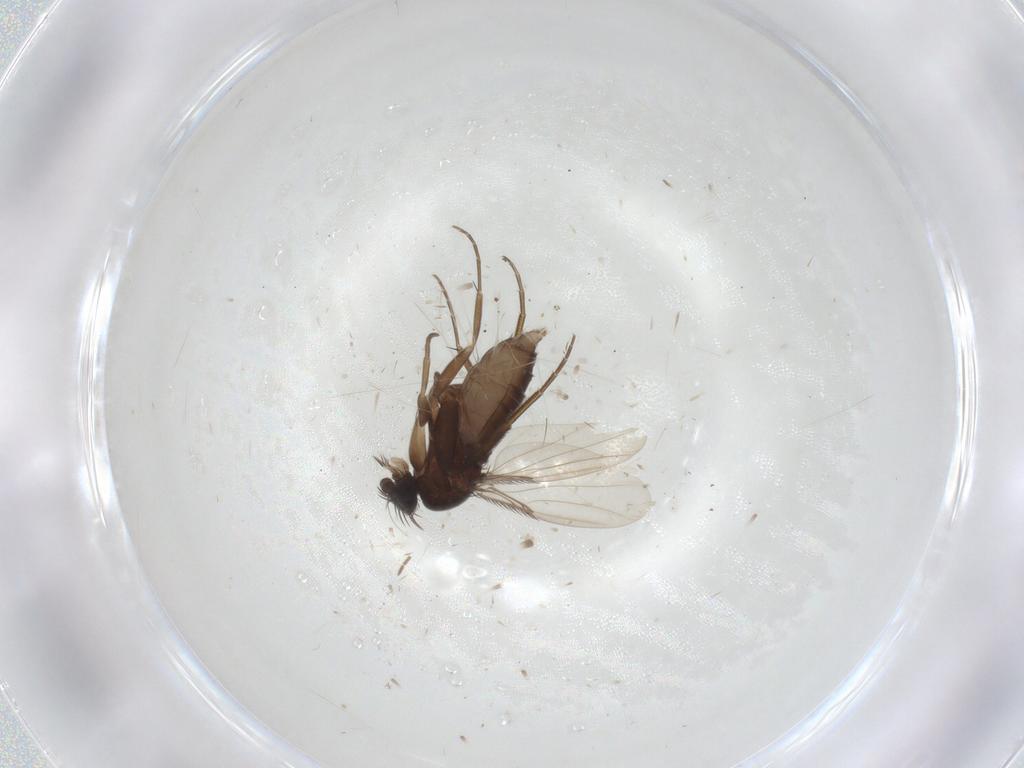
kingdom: Animalia
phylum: Arthropoda
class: Insecta
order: Diptera
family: Phoridae
